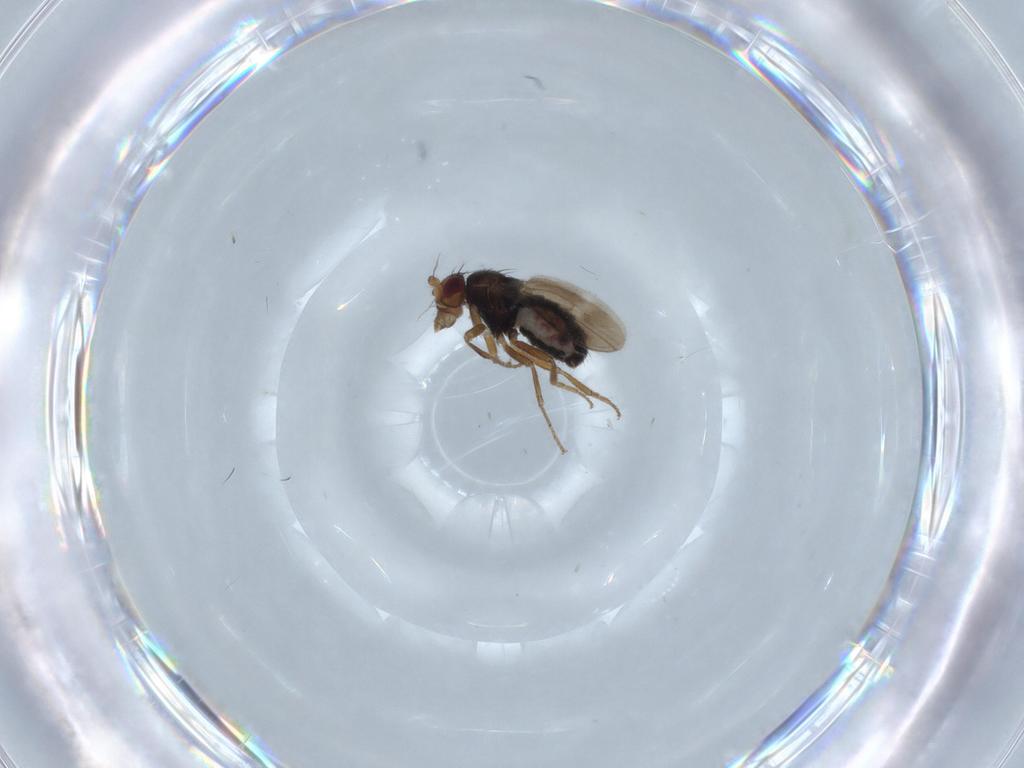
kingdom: Animalia
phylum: Arthropoda
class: Insecta
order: Diptera
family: Sphaeroceridae
